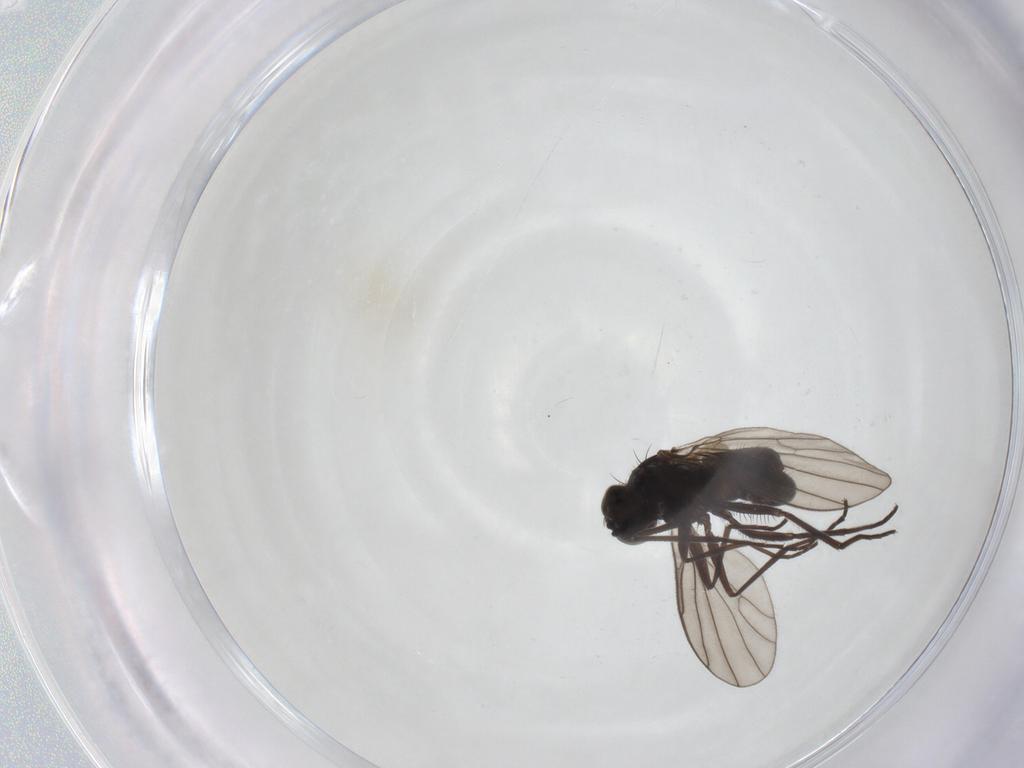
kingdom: Animalia
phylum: Arthropoda
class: Insecta
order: Diptera
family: Dolichopodidae
